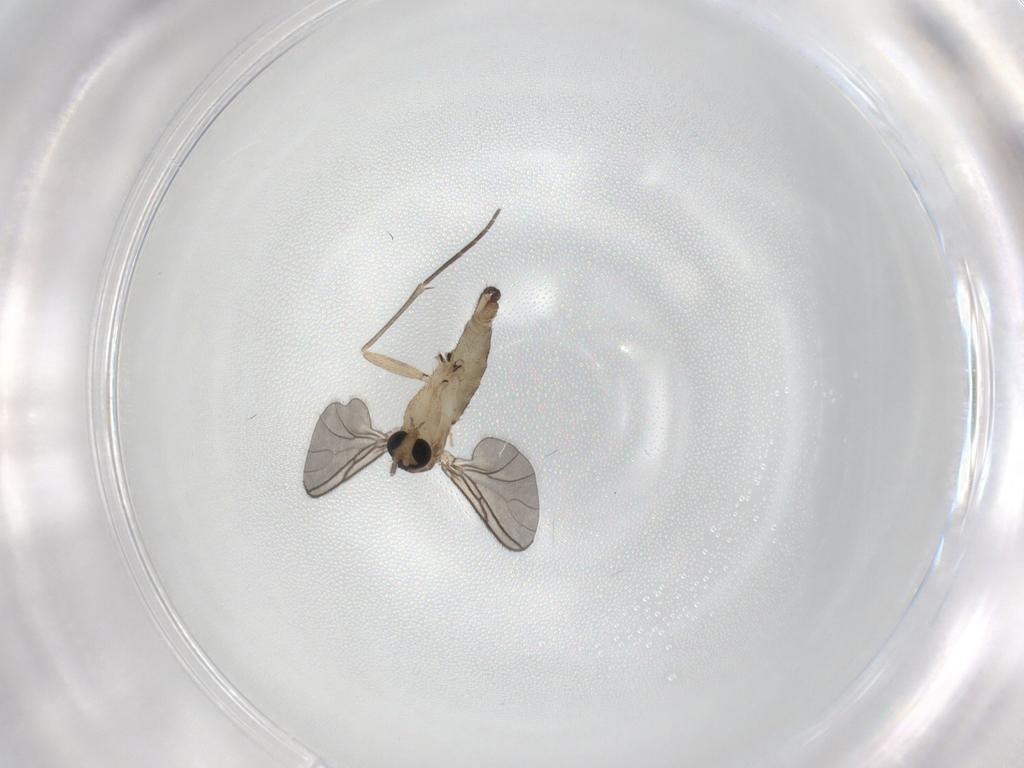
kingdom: Animalia
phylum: Arthropoda
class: Insecta
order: Diptera
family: Sciaridae
